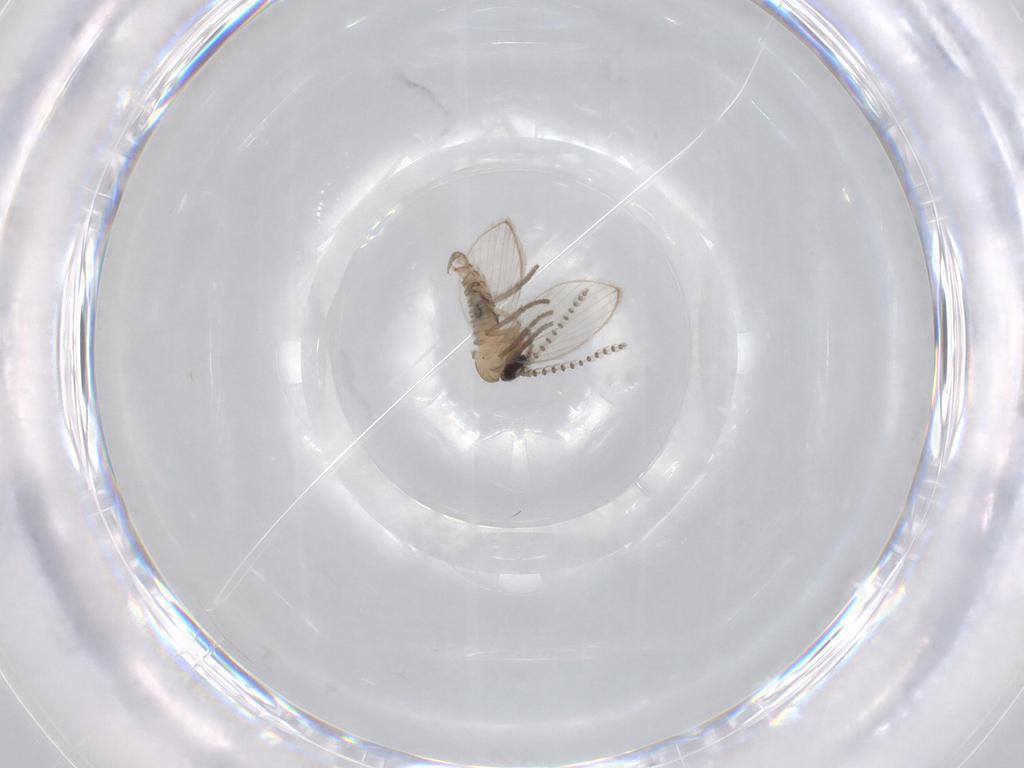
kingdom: Animalia
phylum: Arthropoda
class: Insecta
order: Diptera
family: Psychodidae
